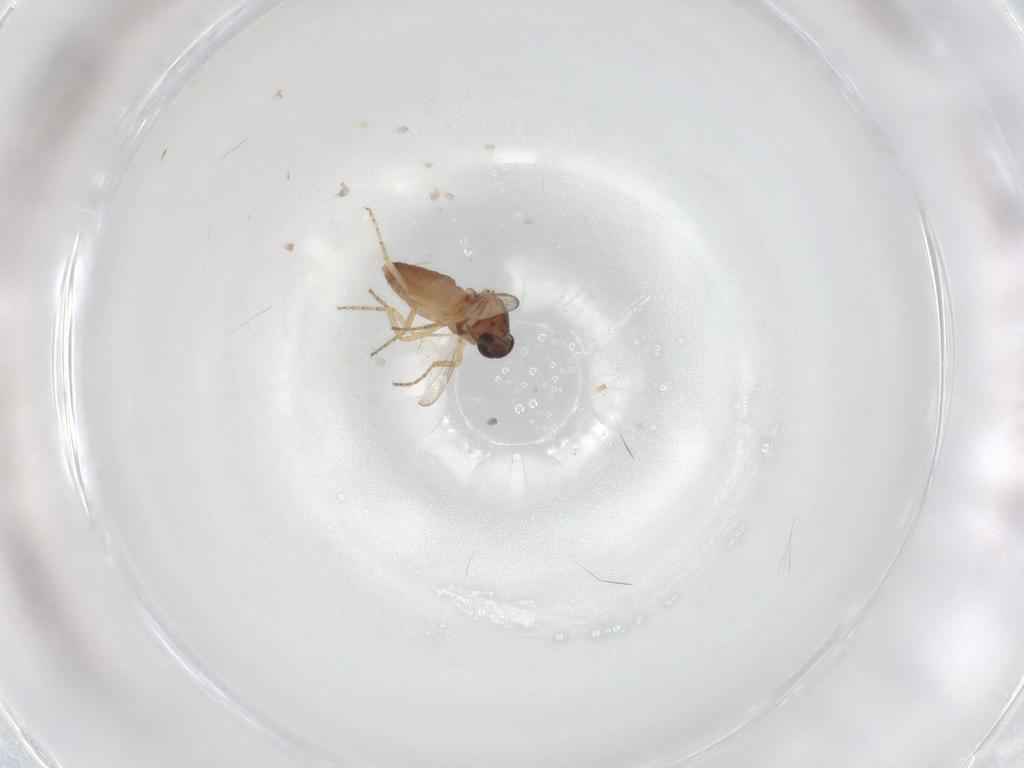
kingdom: Animalia
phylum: Arthropoda
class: Insecta
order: Diptera
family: Ceratopogonidae
